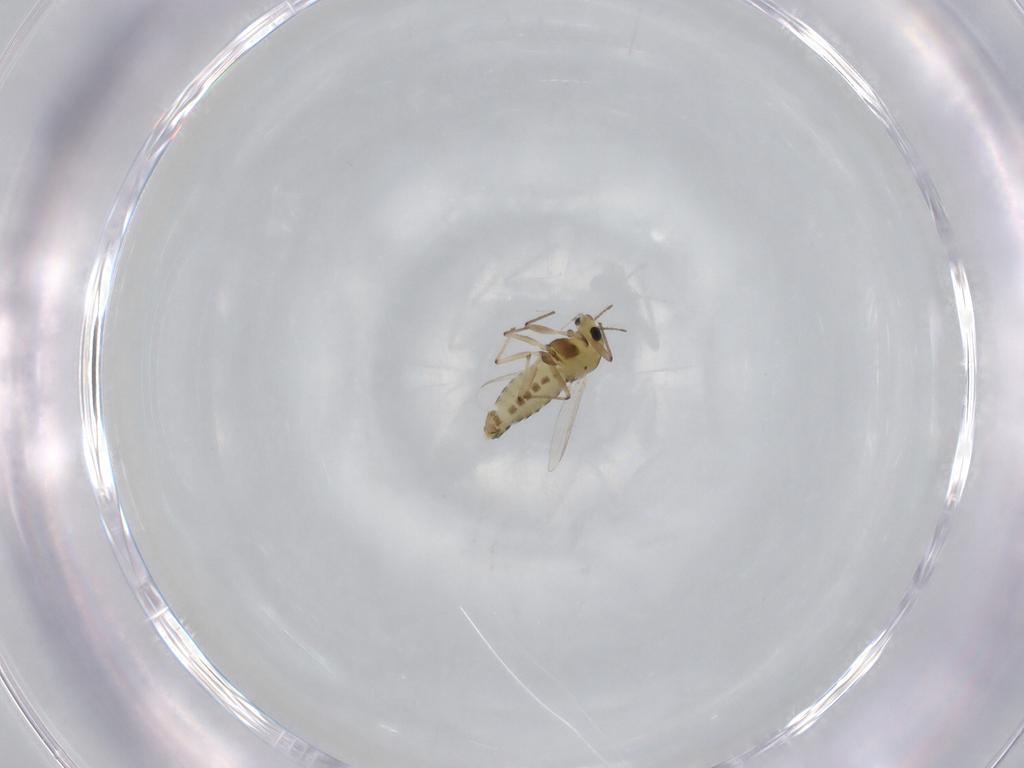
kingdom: Animalia
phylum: Arthropoda
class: Insecta
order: Diptera
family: Chironomidae
